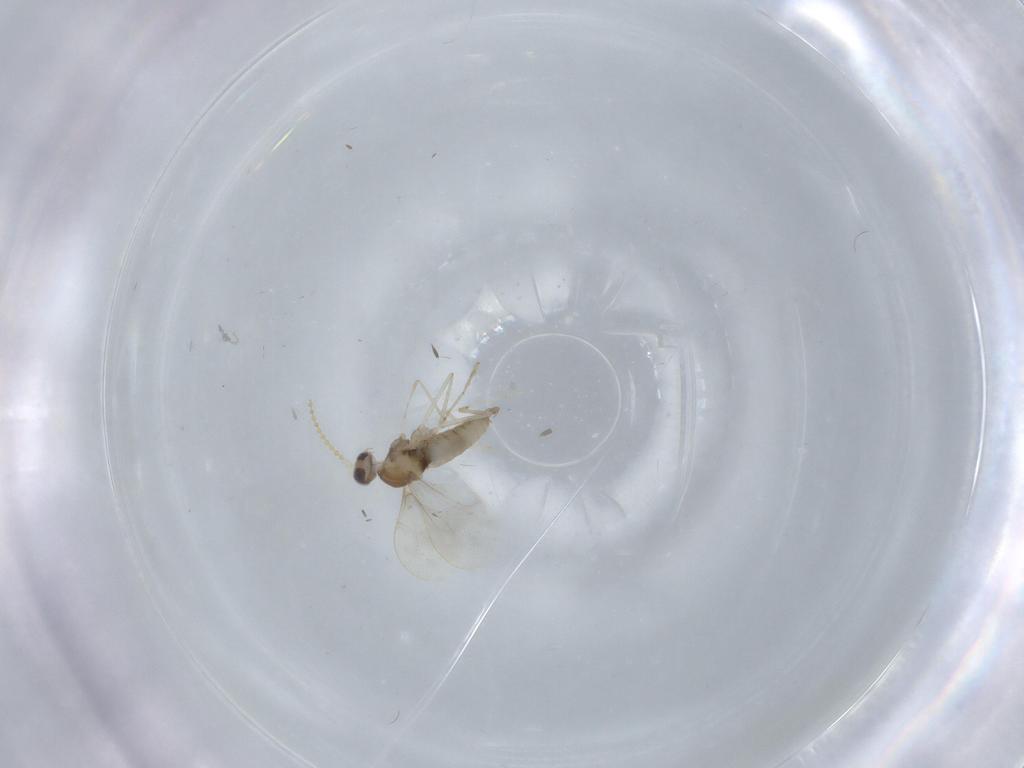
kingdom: Animalia
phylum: Arthropoda
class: Insecta
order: Diptera
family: Cecidomyiidae
